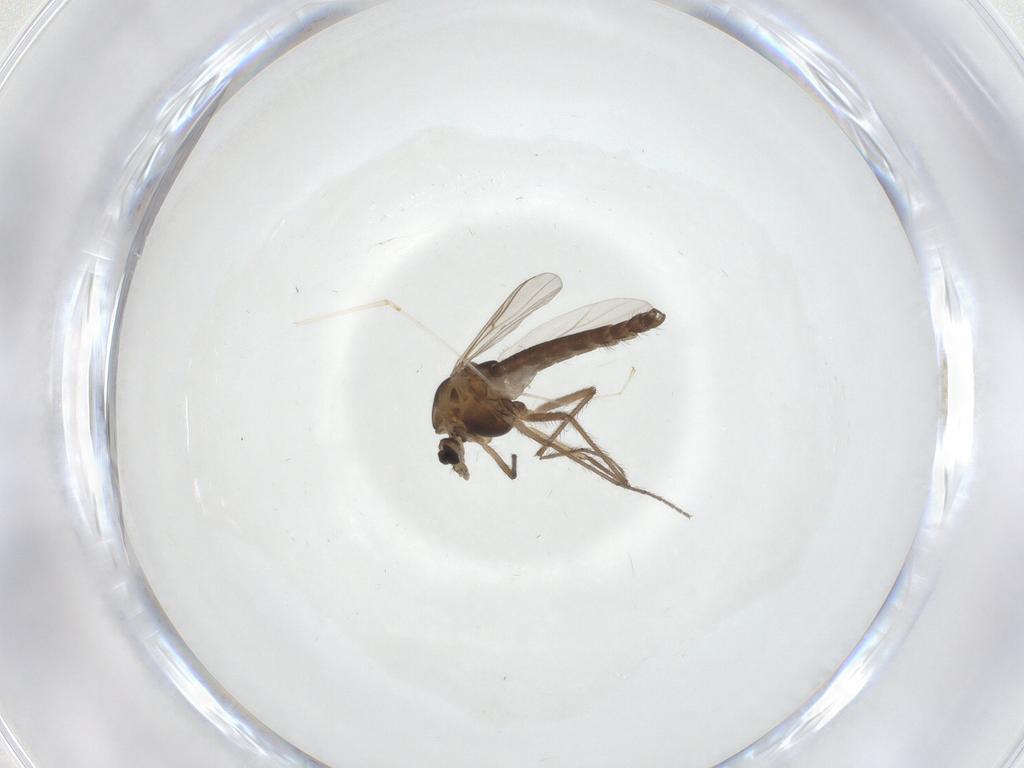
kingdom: Animalia
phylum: Arthropoda
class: Insecta
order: Diptera
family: Chironomidae
